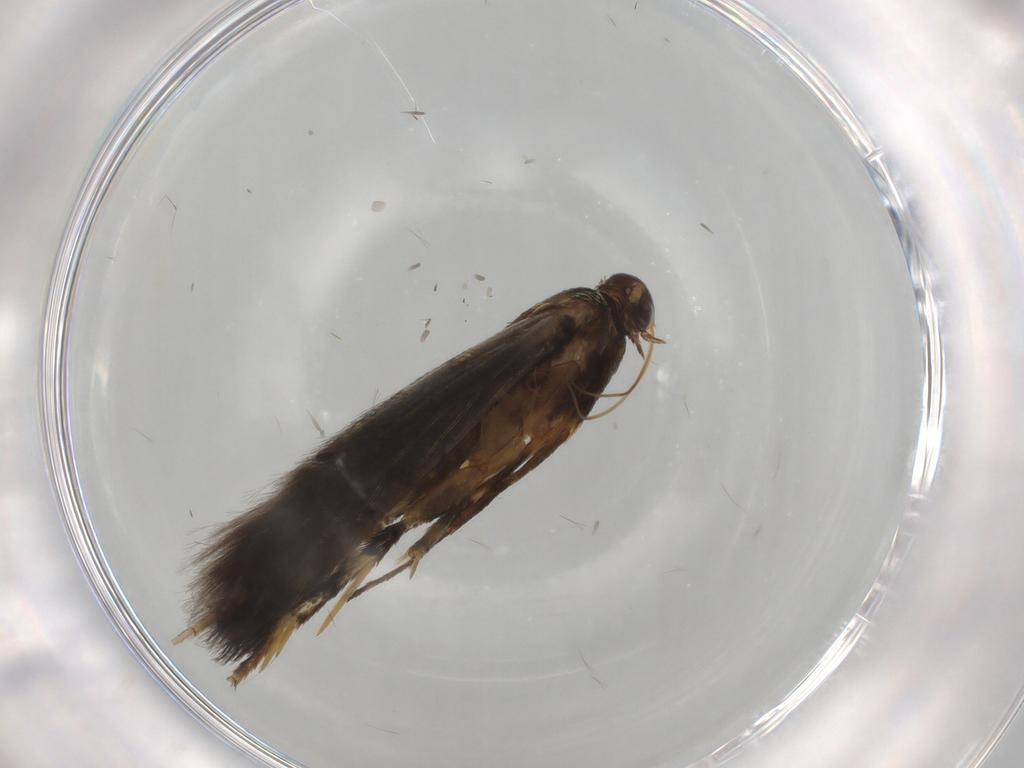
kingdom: Animalia
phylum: Arthropoda
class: Insecta
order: Lepidoptera
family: Heliodinidae
